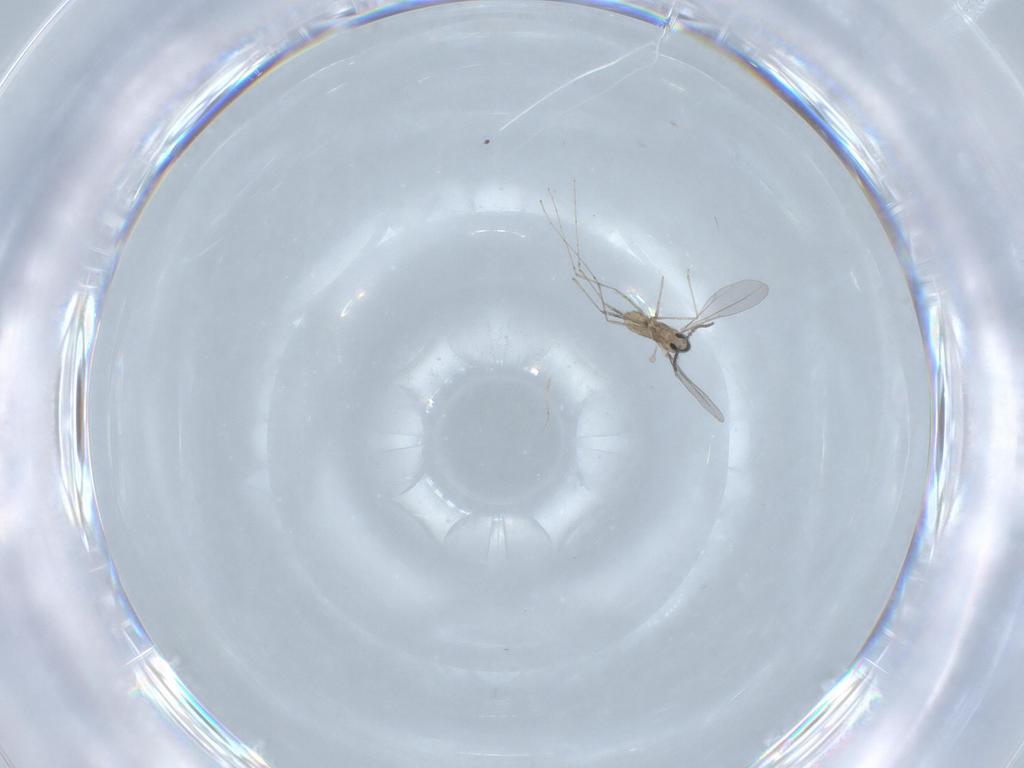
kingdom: Animalia
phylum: Arthropoda
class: Insecta
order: Diptera
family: Cecidomyiidae
